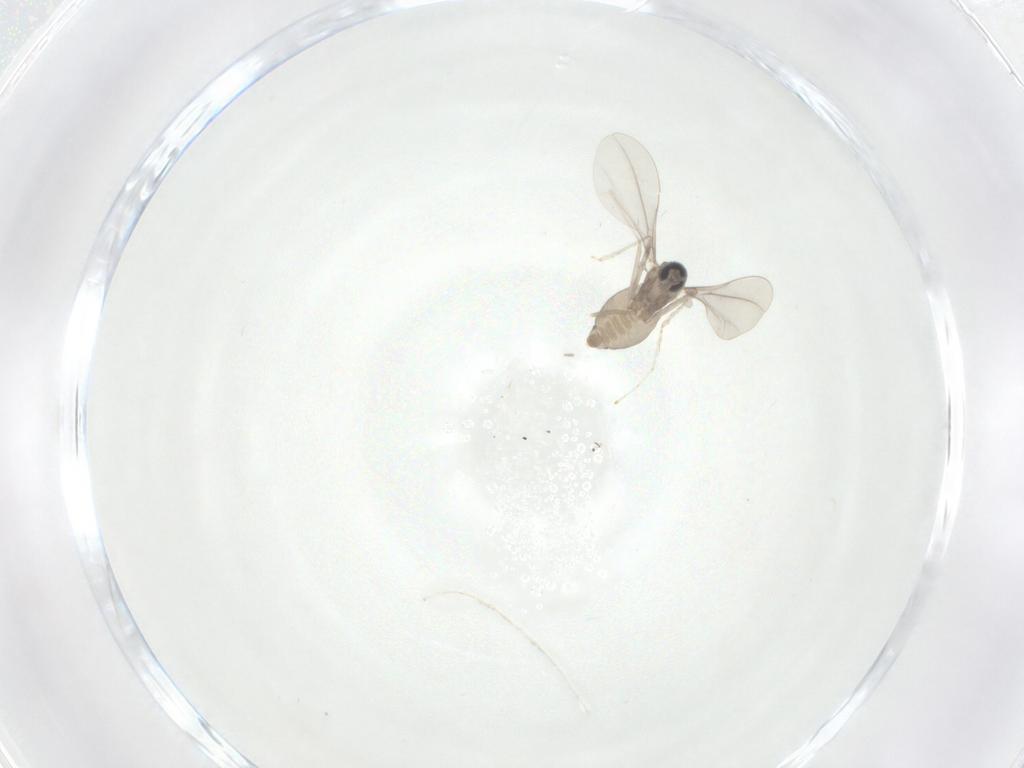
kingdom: Animalia
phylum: Arthropoda
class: Insecta
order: Diptera
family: Cecidomyiidae
